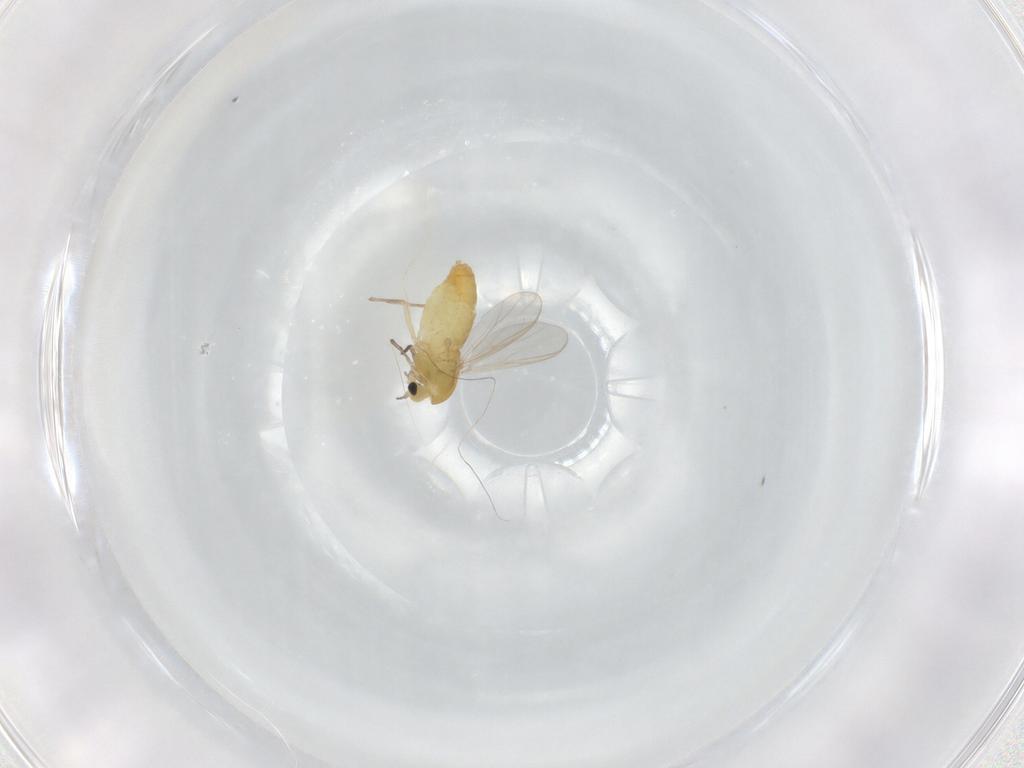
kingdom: Animalia
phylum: Arthropoda
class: Insecta
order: Diptera
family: Chironomidae
